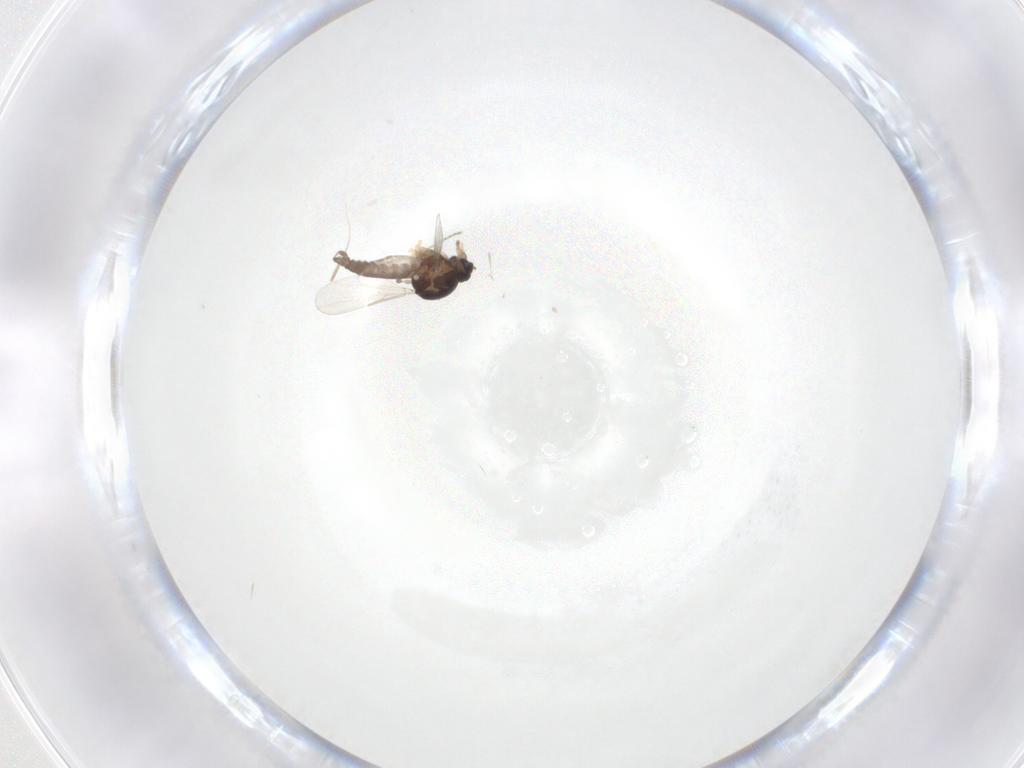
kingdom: Animalia
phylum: Arthropoda
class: Insecta
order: Diptera
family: Ceratopogonidae
